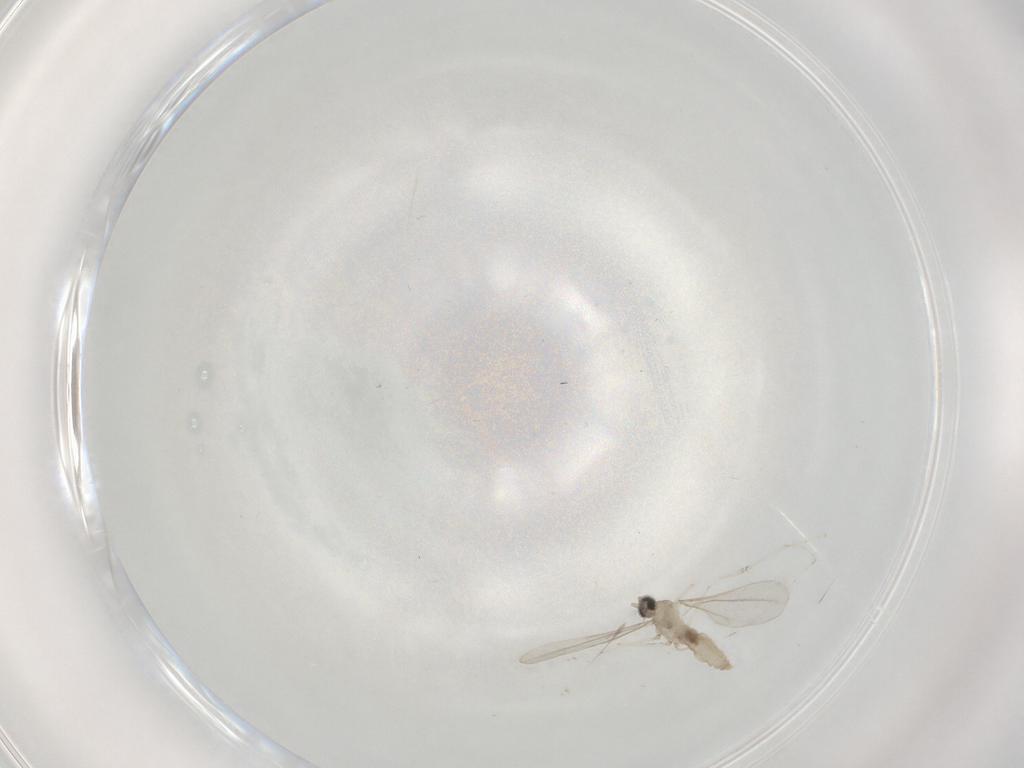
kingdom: Animalia
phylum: Arthropoda
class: Insecta
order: Diptera
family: Cecidomyiidae
